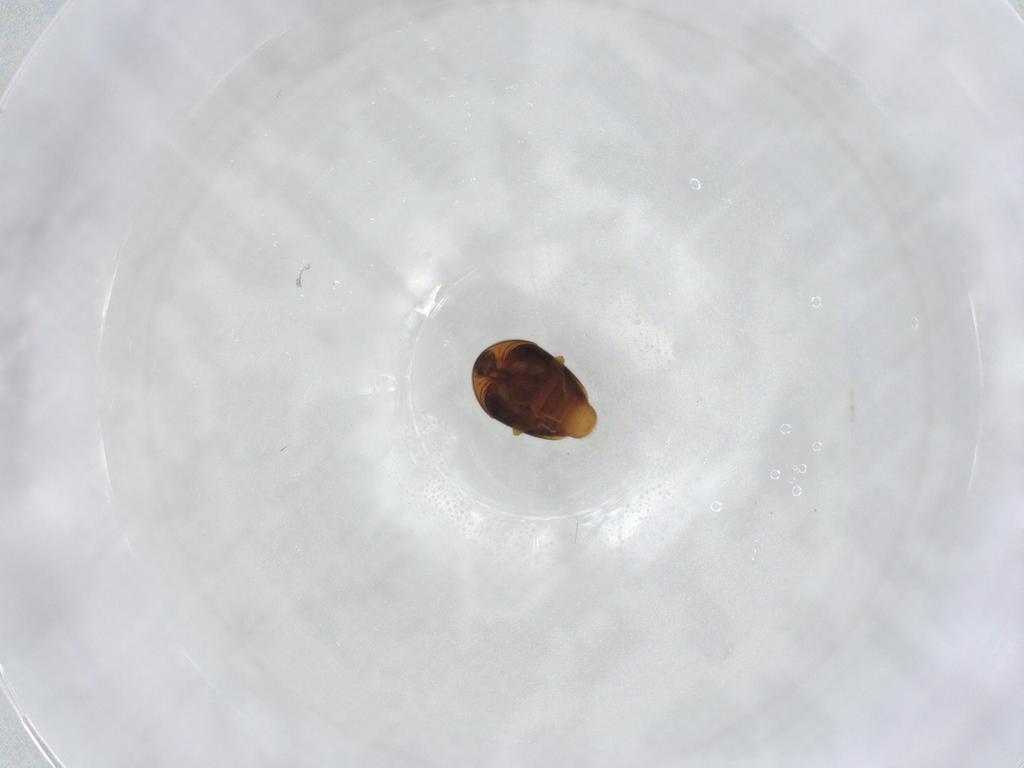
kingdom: Animalia
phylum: Arthropoda
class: Insecta
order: Coleoptera
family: Corylophidae
